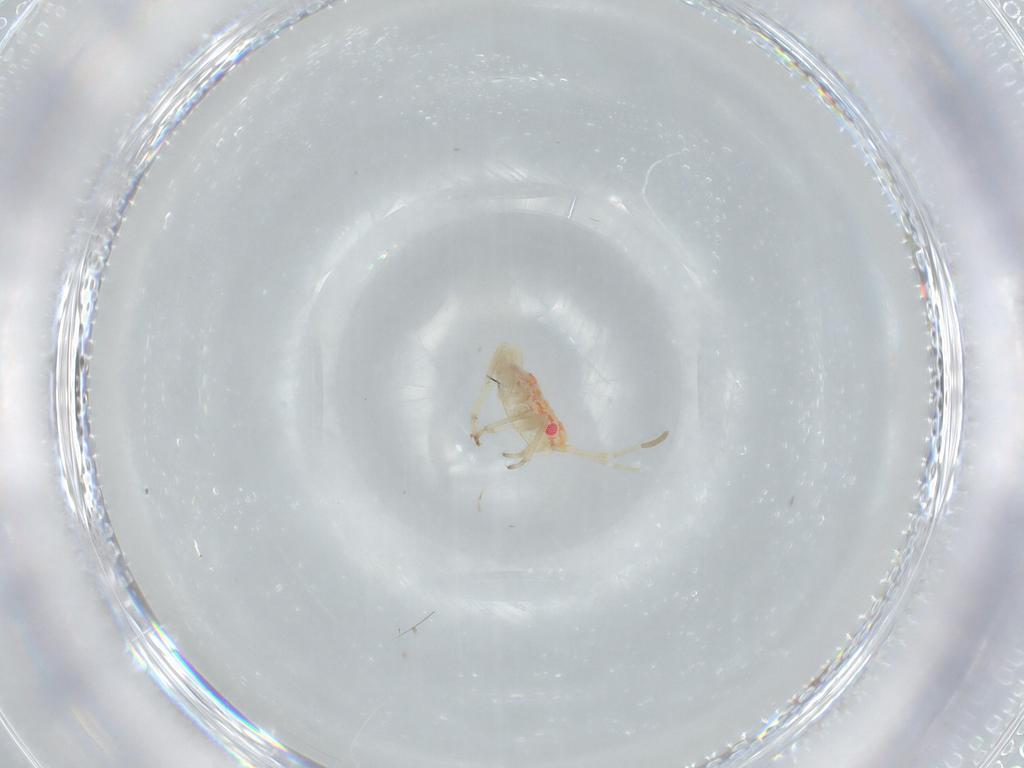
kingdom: Animalia
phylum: Arthropoda
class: Insecta
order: Hemiptera
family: Miridae
